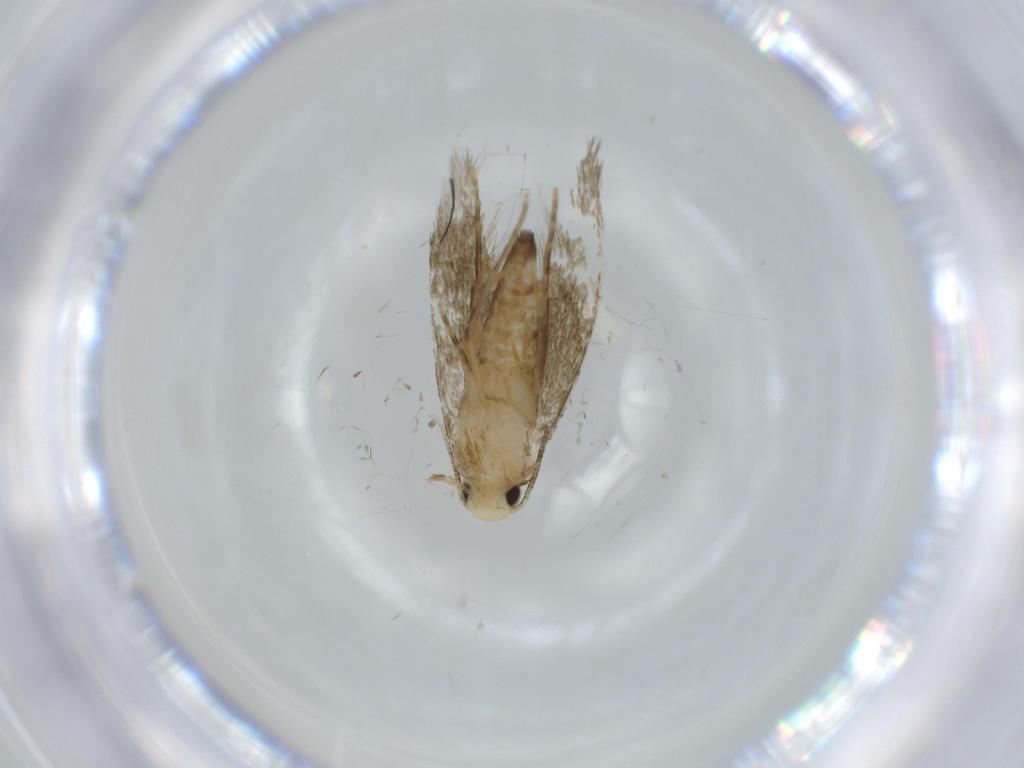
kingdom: Animalia
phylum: Arthropoda
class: Insecta
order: Lepidoptera
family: Tineidae
